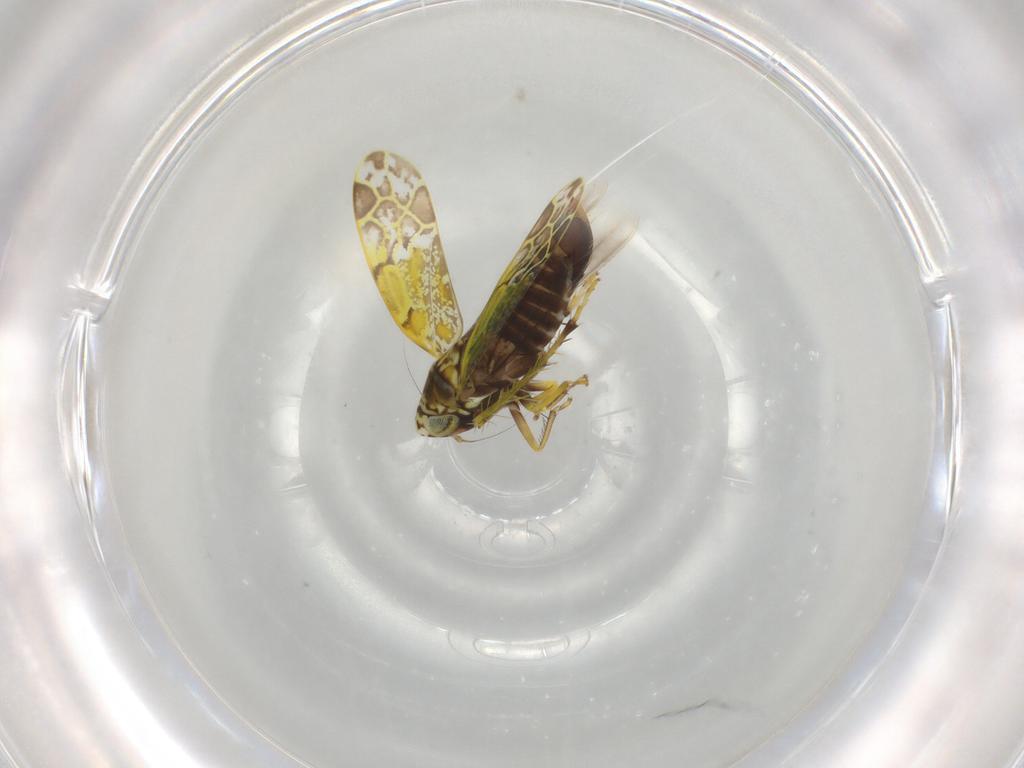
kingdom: Animalia
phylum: Arthropoda
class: Insecta
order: Hemiptera
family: Cicadellidae
